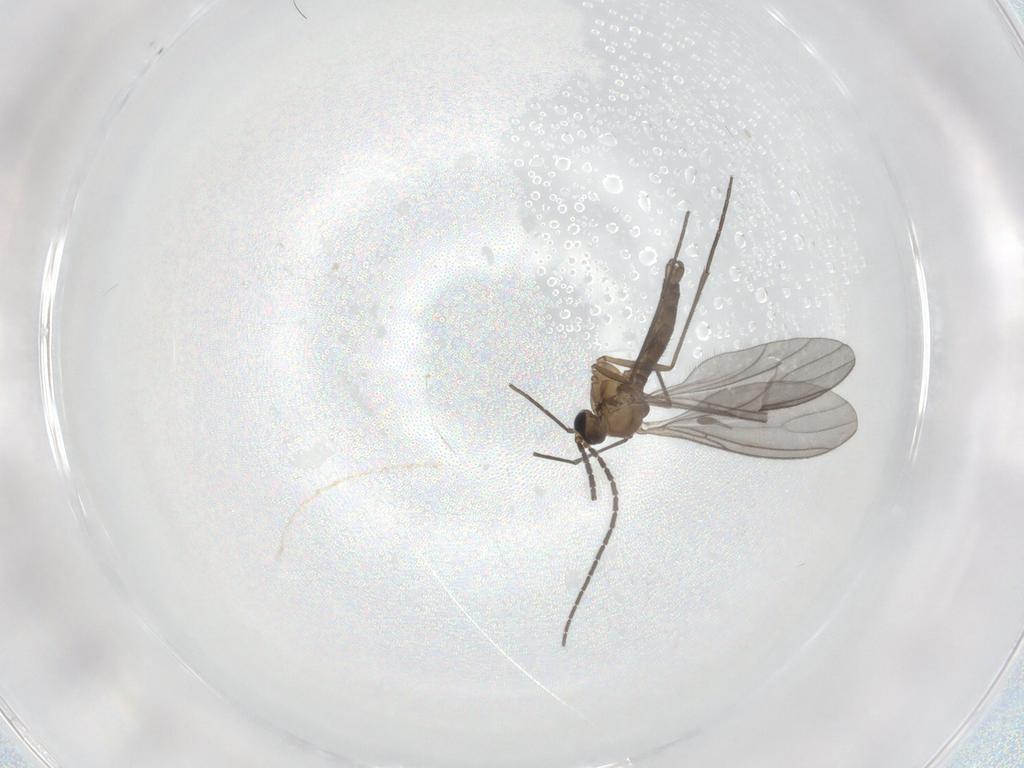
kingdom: Animalia
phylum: Arthropoda
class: Insecta
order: Diptera
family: Sciaridae
